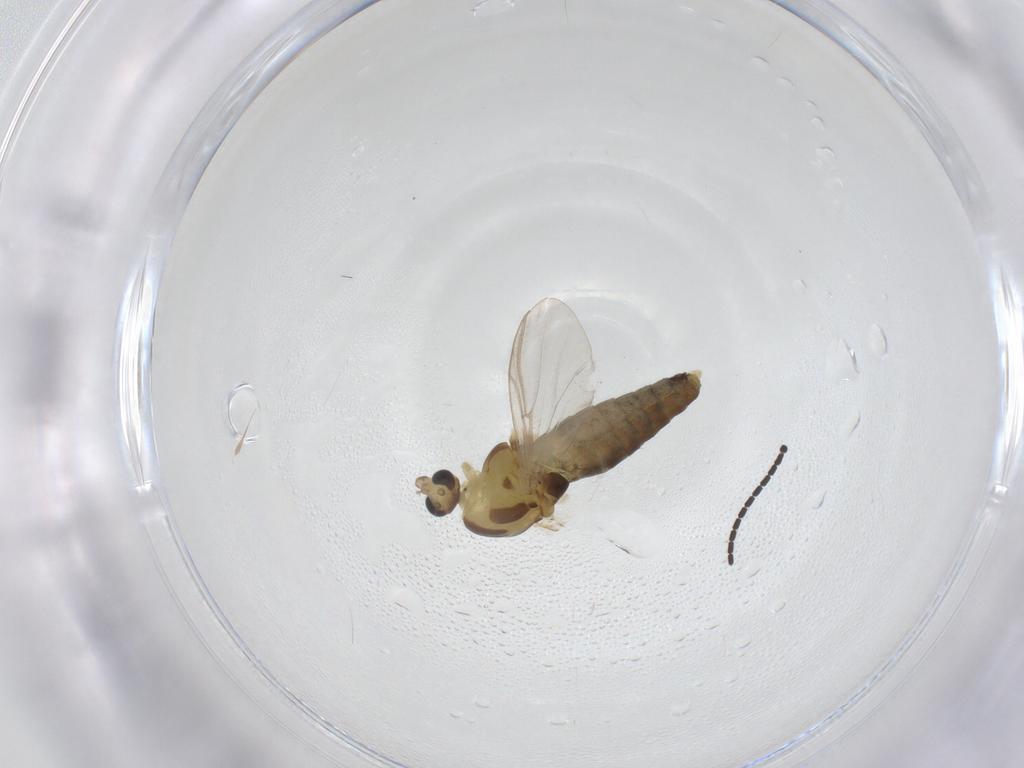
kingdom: Animalia
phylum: Arthropoda
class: Insecta
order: Diptera
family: Chironomidae
